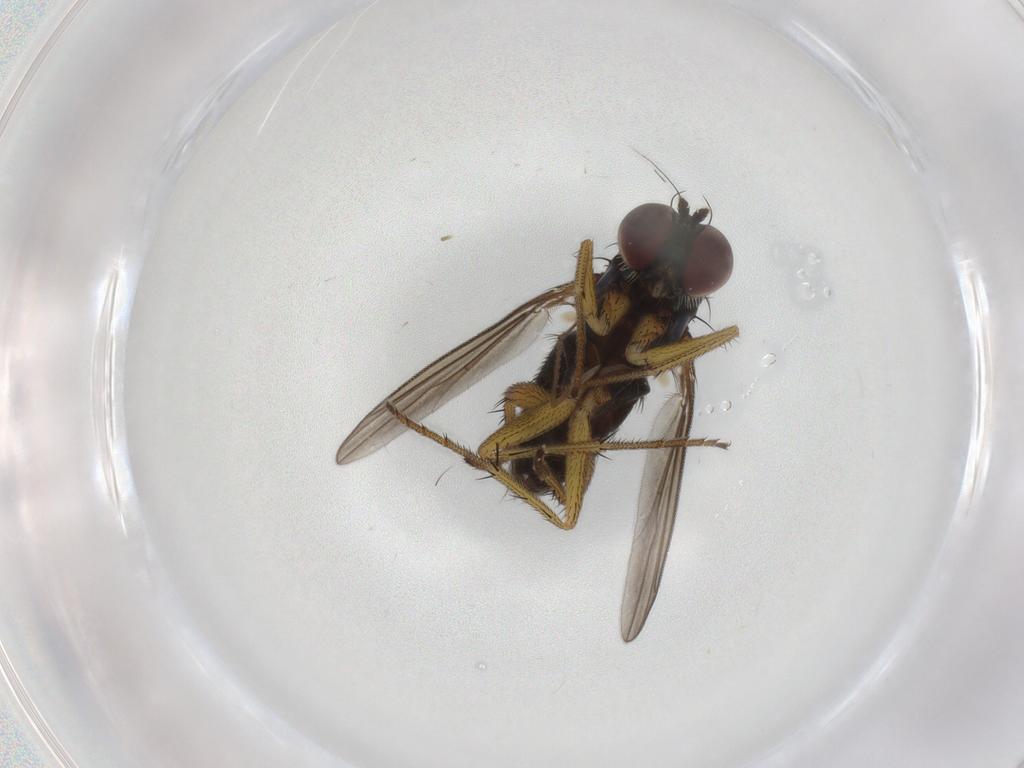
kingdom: Animalia
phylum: Arthropoda
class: Insecta
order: Diptera
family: Dolichopodidae
